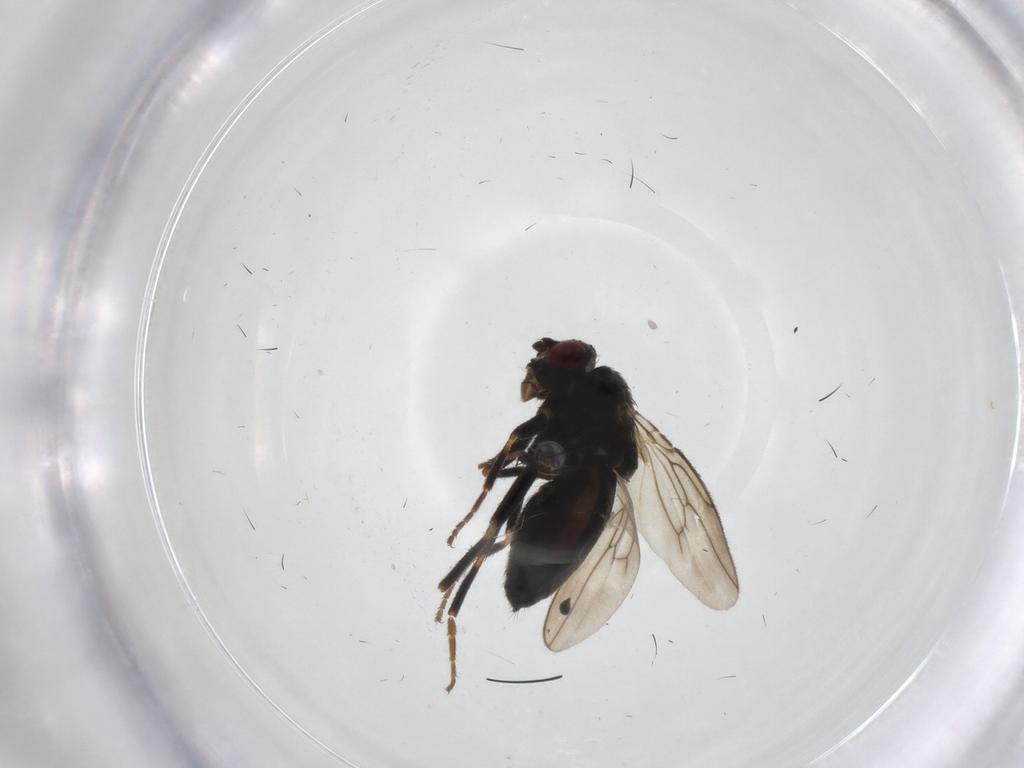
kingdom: Animalia
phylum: Arthropoda
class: Insecta
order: Diptera
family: Sphaeroceridae
